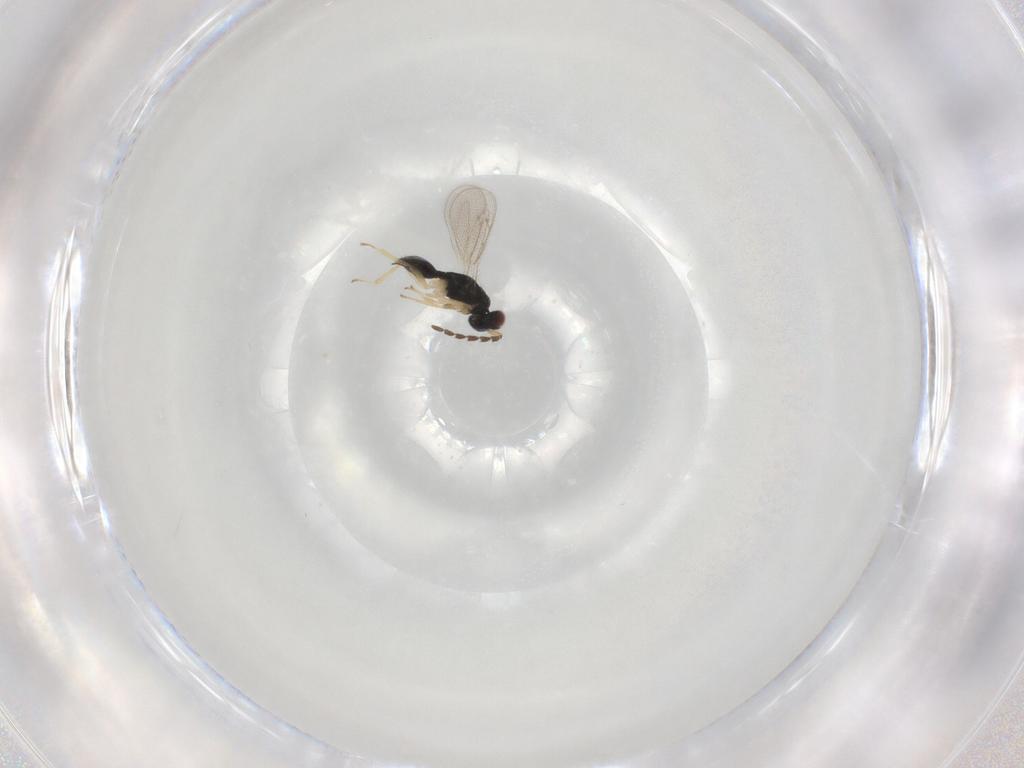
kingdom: Animalia
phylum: Arthropoda
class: Insecta
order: Hymenoptera
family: Eulophidae
